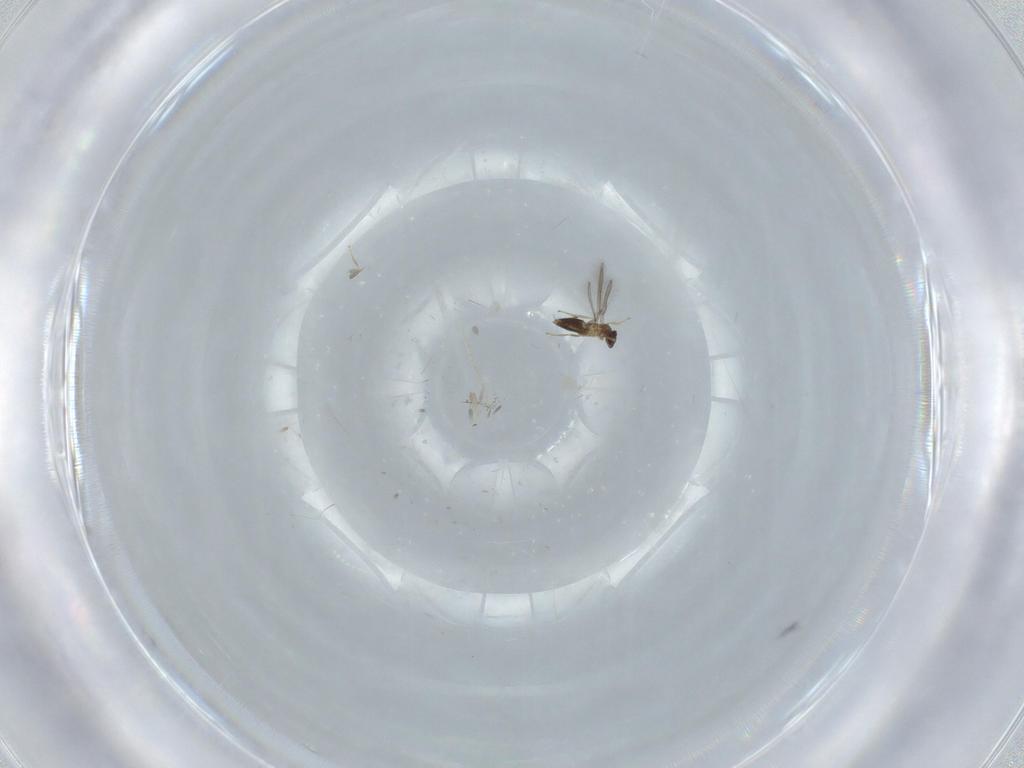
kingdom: Animalia
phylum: Arthropoda
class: Insecta
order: Hymenoptera
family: Mymaridae
